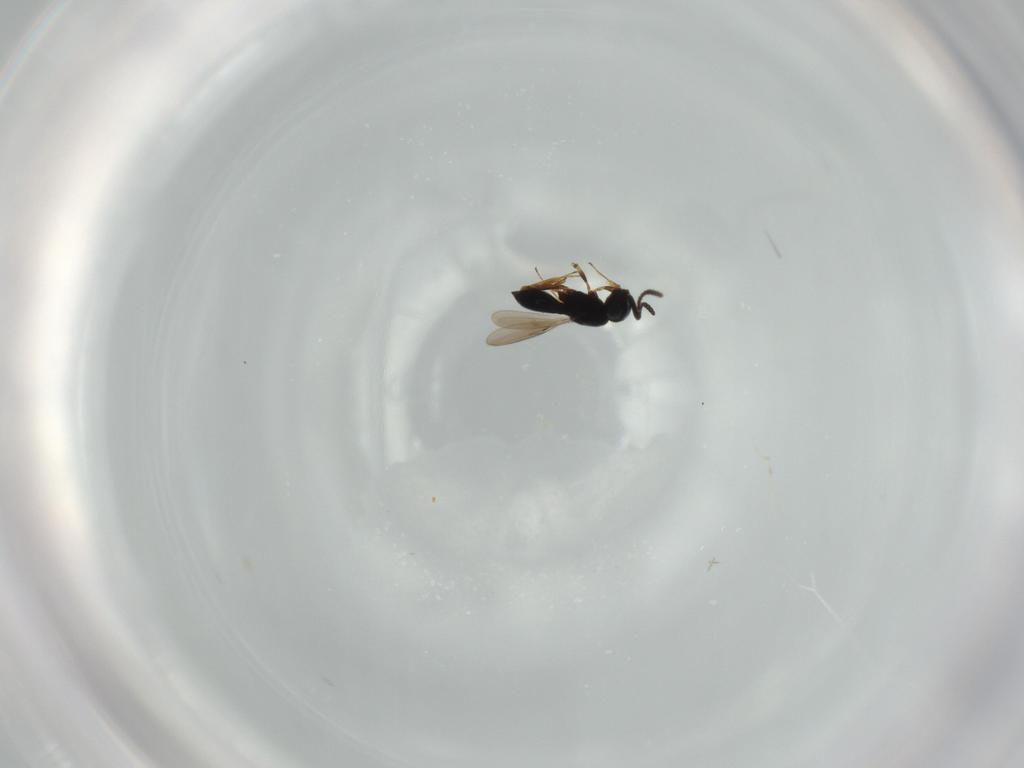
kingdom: Animalia
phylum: Arthropoda
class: Insecta
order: Hymenoptera
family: Scelionidae
